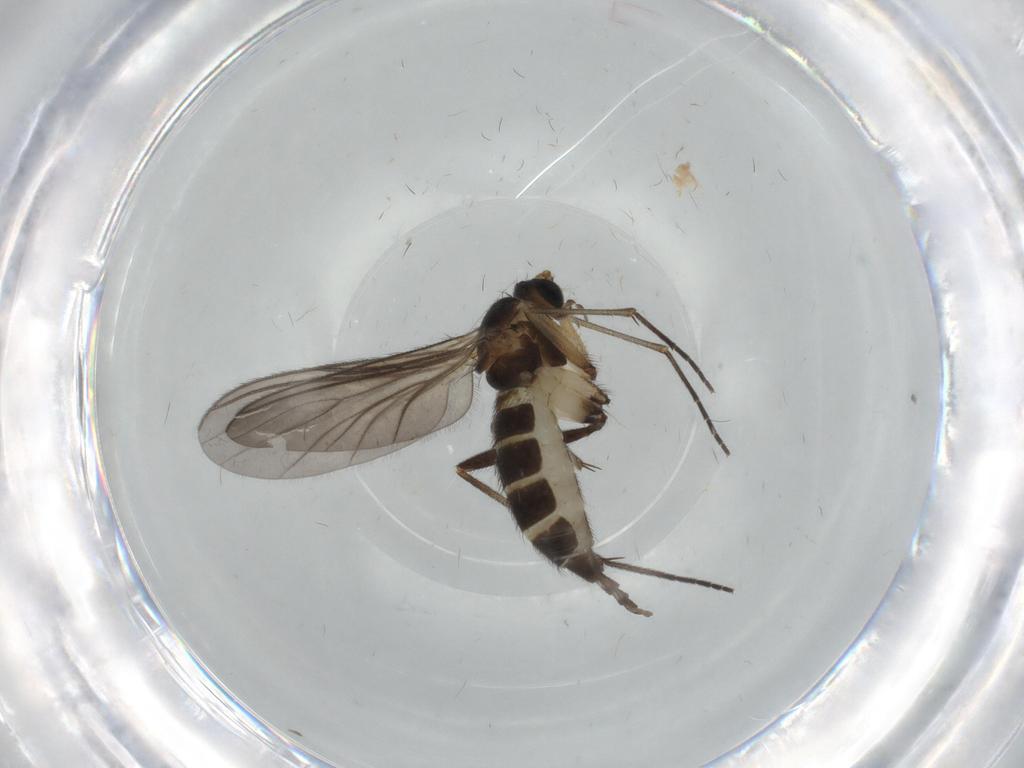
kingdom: Animalia
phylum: Arthropoda
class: Insecta
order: Diptera
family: Sciaridae
